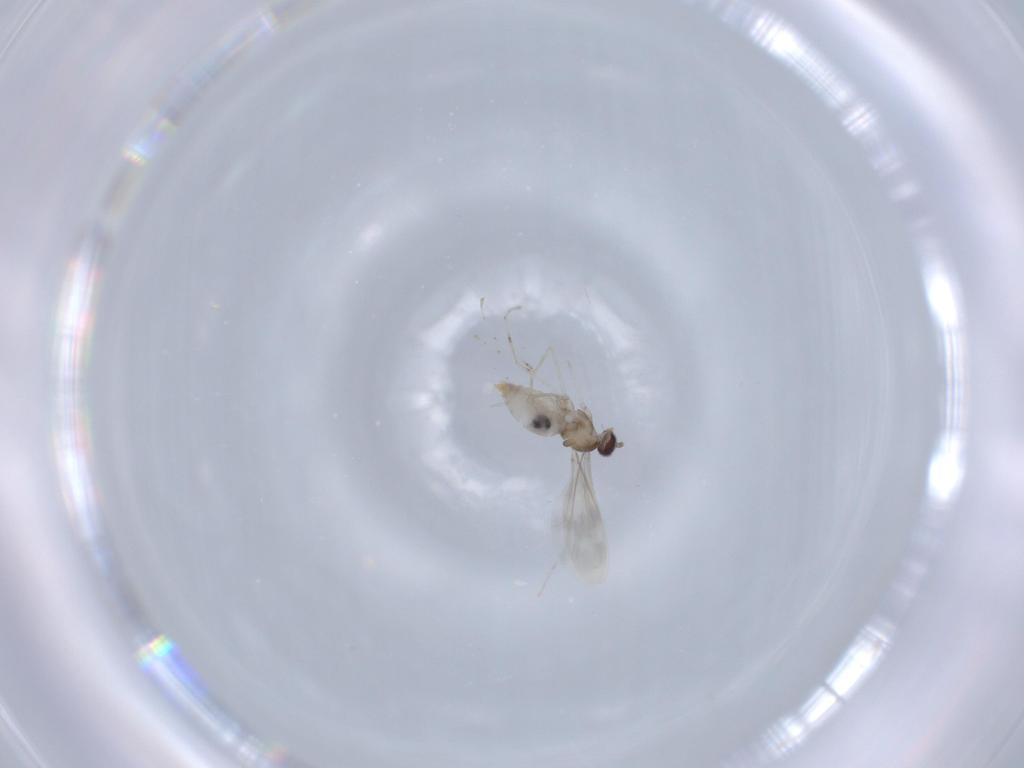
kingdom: Animalia
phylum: Arthropoda
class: Insecta
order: Diptera
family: Cecidomyiidae
